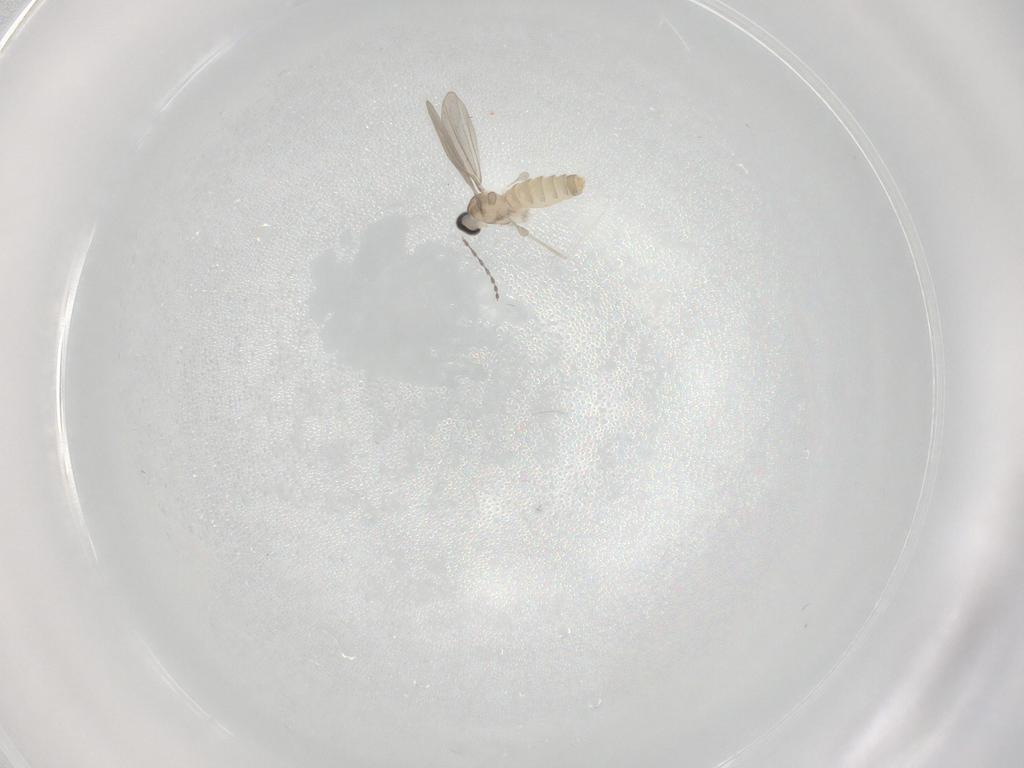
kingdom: Animalia
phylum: Arthropoda
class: Insecta
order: Diptera
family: Cecidomyiidae
